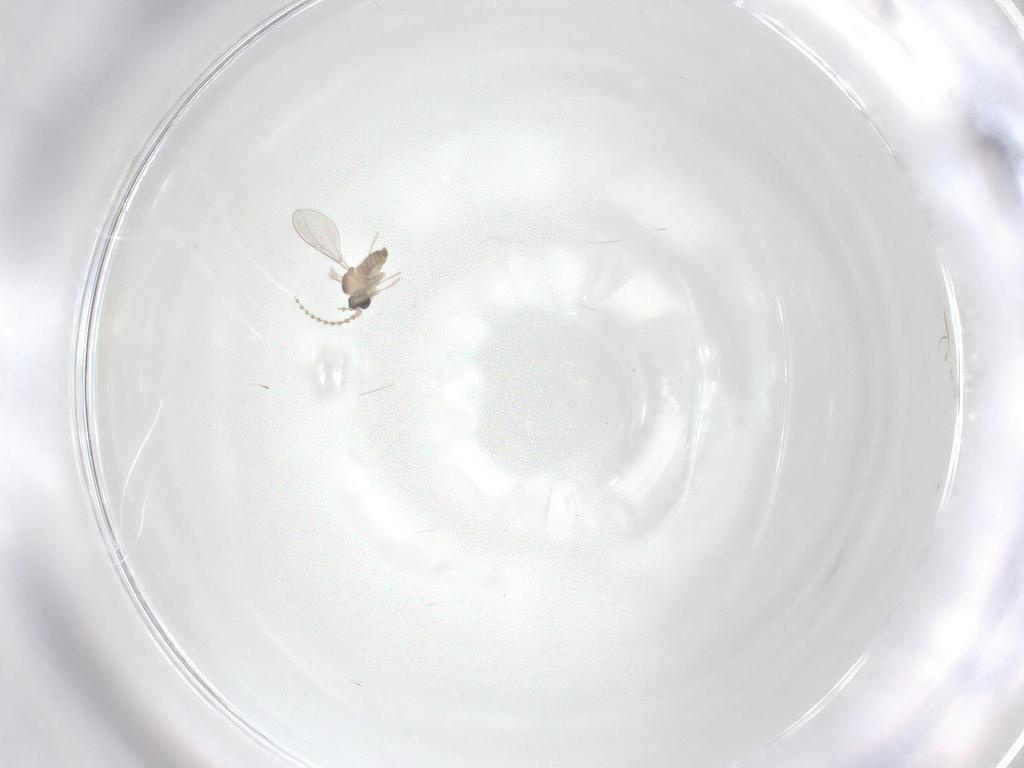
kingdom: Animalia
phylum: Arthropoda
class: Insecta
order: Diptera
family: Cecidomyiidae
